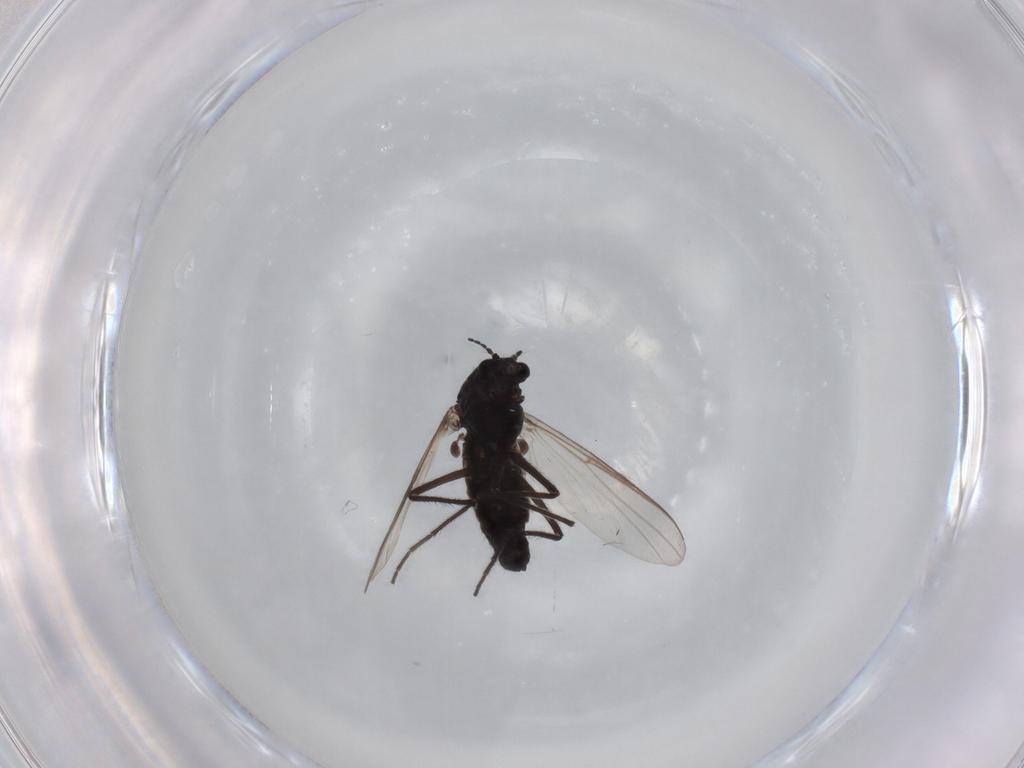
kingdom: Animalia
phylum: Arthropoda
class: Insecta
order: Diptera
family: Chironomidae
